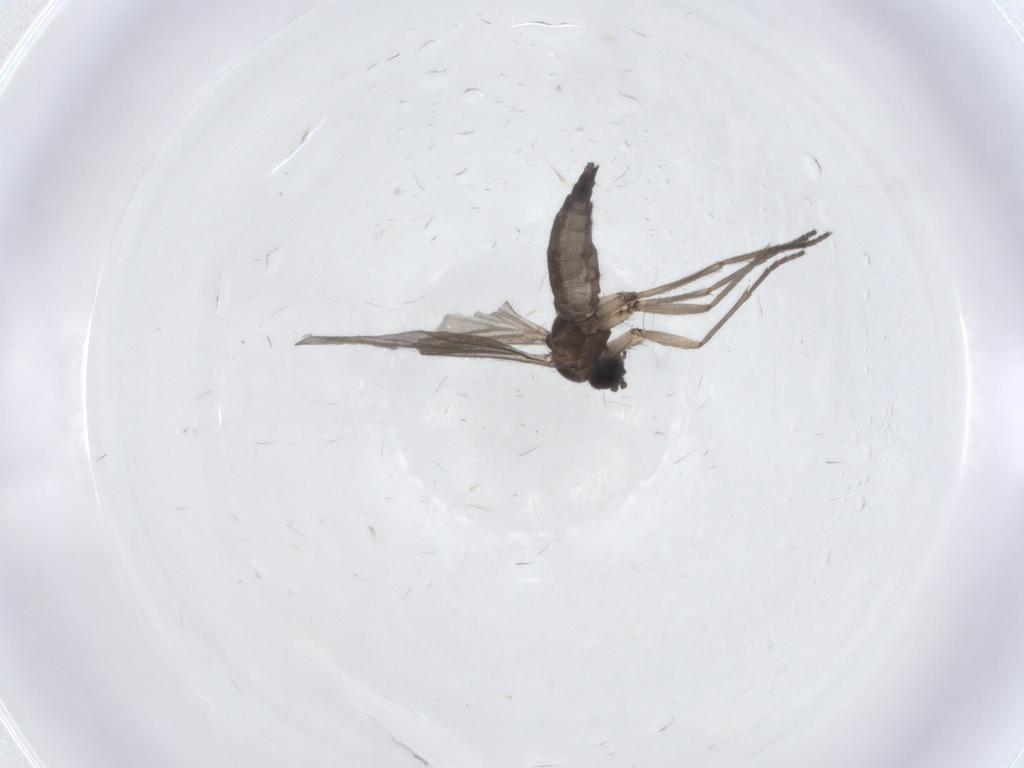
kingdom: Animalia
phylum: Arthropoda
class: Insecta
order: Diptera
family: Sciaridae
